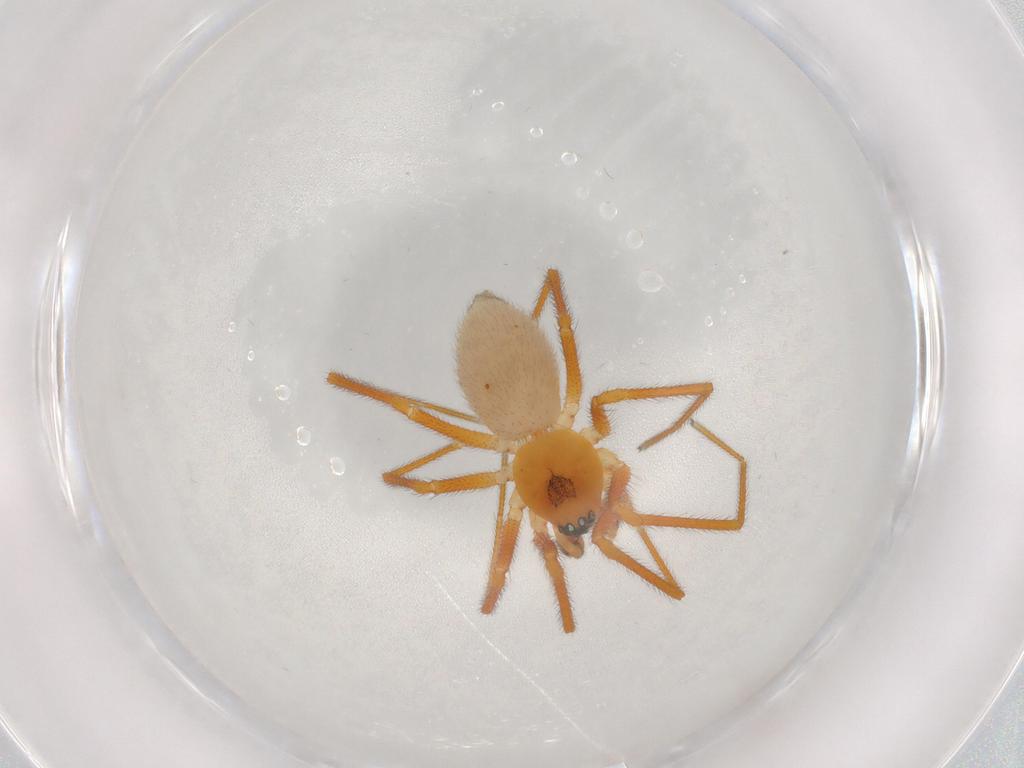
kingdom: Animalia
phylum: Arthropoda
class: Arachnida
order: Araneae
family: Linyphiidae
